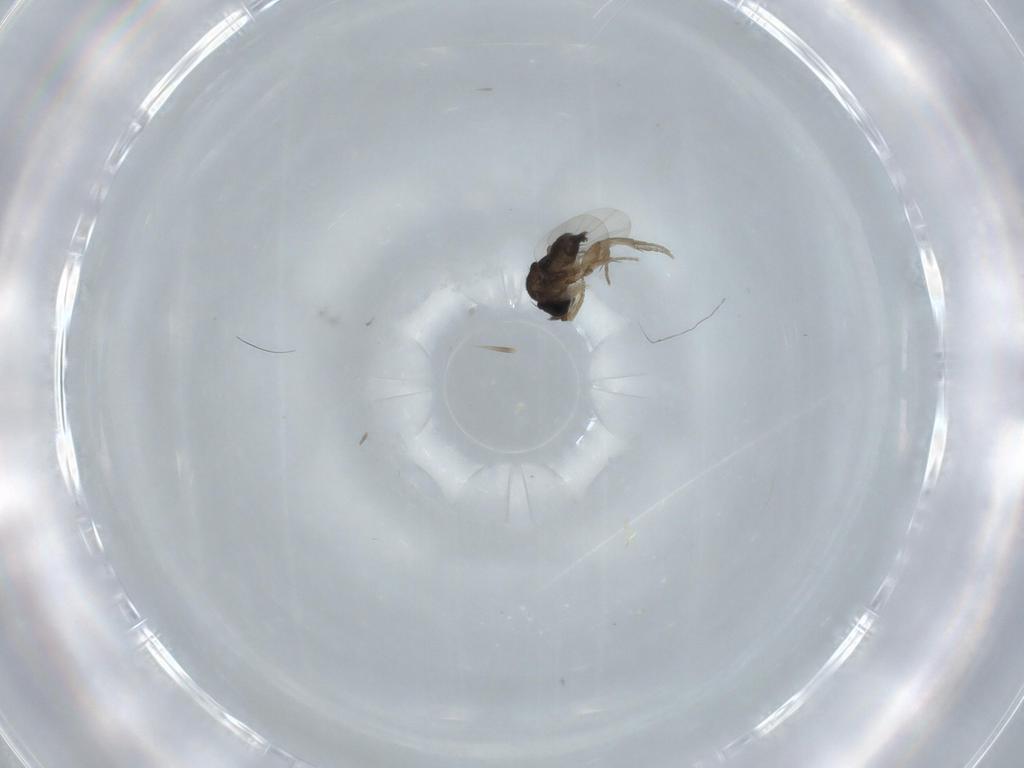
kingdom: Animalia
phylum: Arthropoda
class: Insecta
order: Diptera
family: Phoridae
